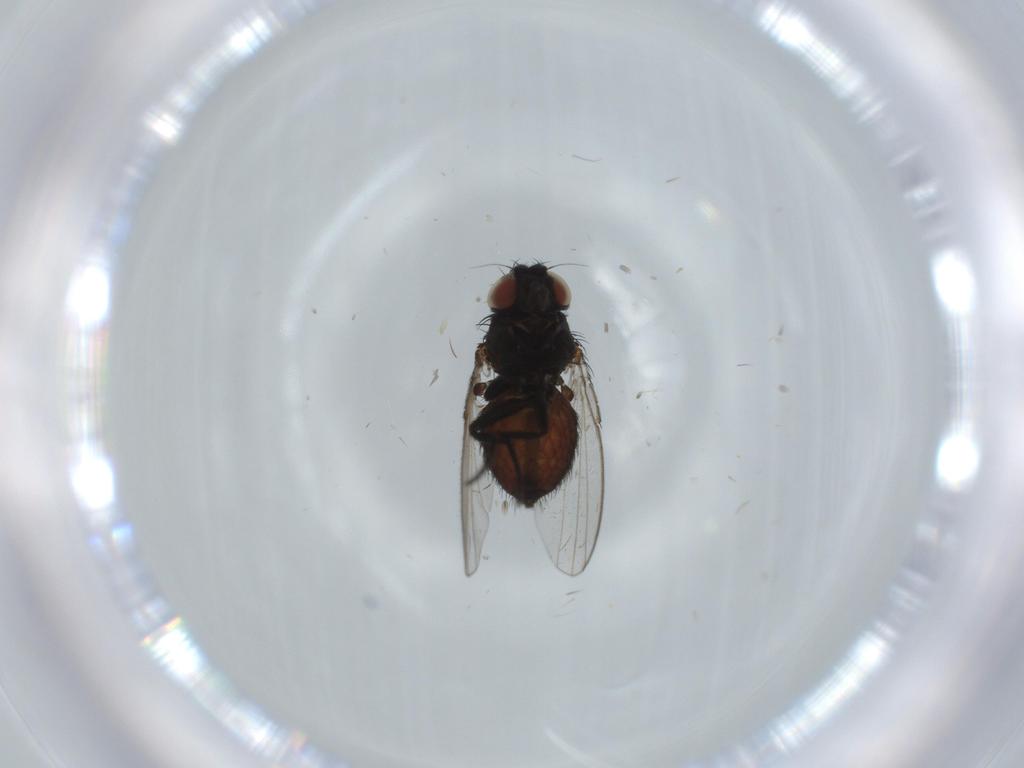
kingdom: Animalia
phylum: Arthropoda
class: Insecta
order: Diptera
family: Milichiidae
